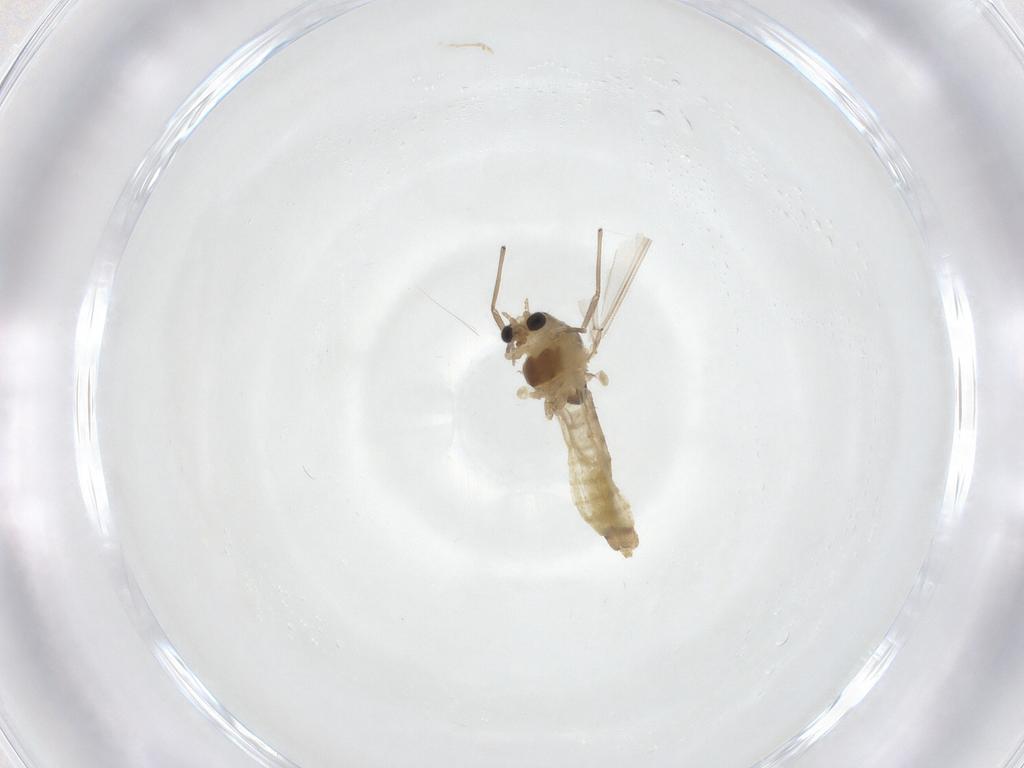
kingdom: Animalia
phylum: Arthropoda
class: Insecta
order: Diptera
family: Chironomidae
